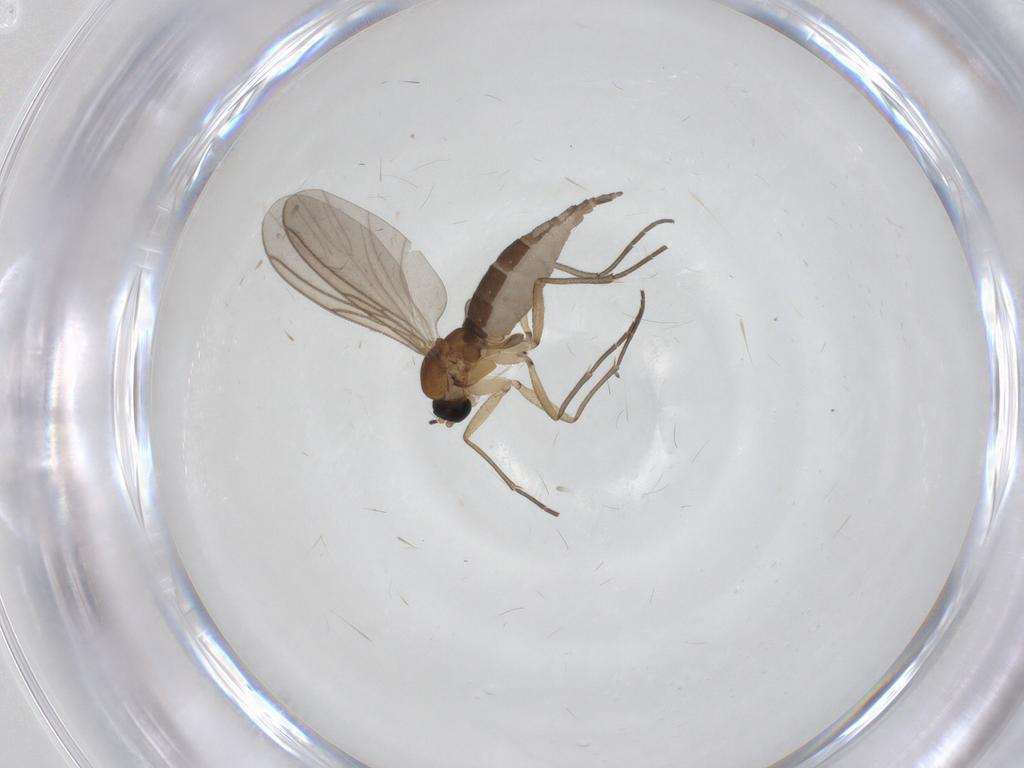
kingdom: Animalia
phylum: Arthropoda
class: Insecta
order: Diptera
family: Sciaridae
